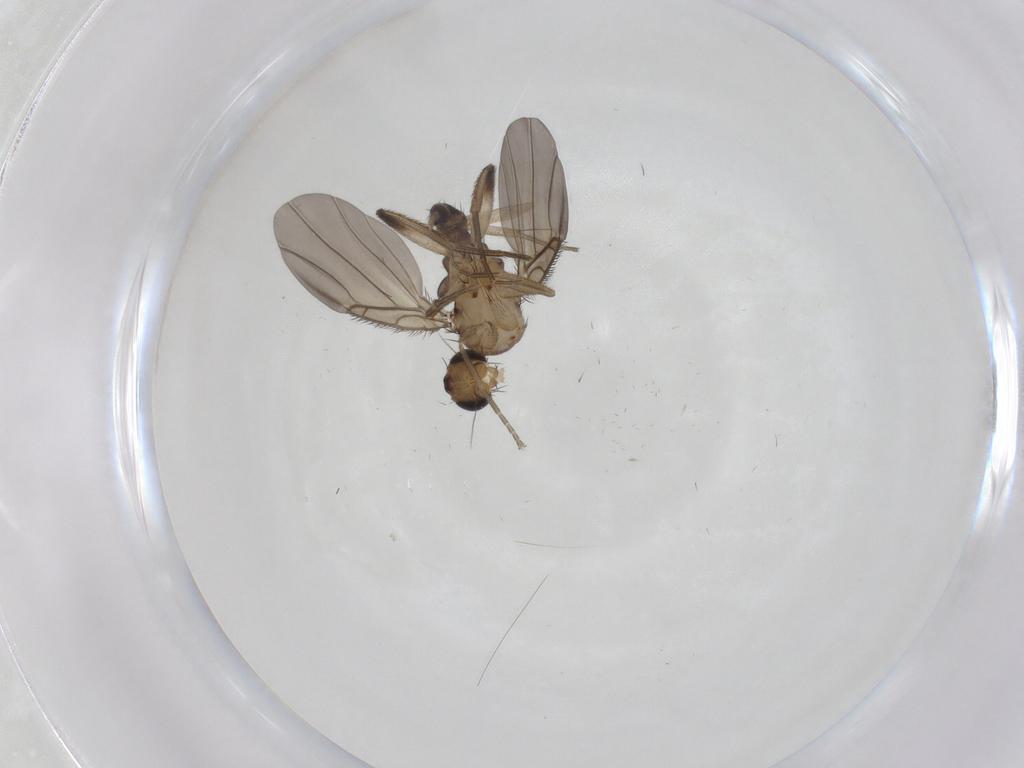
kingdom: Animalia
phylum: Arthropoda
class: Insecta
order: Diptera
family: Phoridae
